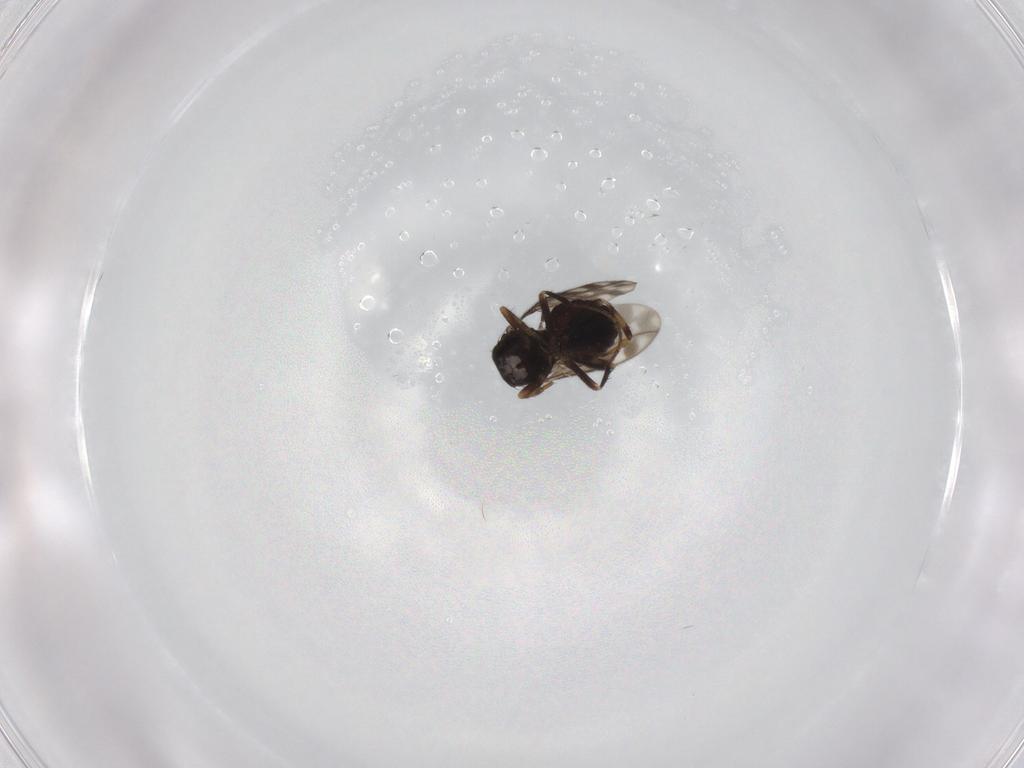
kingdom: Animalia
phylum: Arthropoda
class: Insecta
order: Diptera
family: Sphaeroceridae
